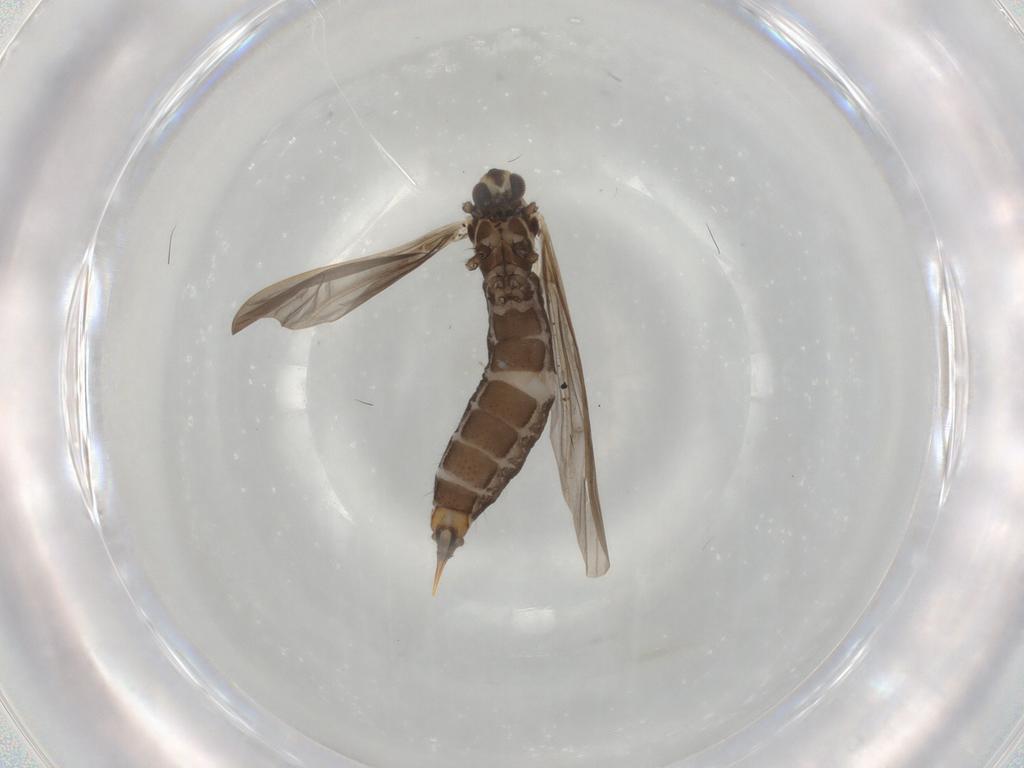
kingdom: Animalia
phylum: Arthropoda
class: Insecta
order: Diptera
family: Limoniidae
